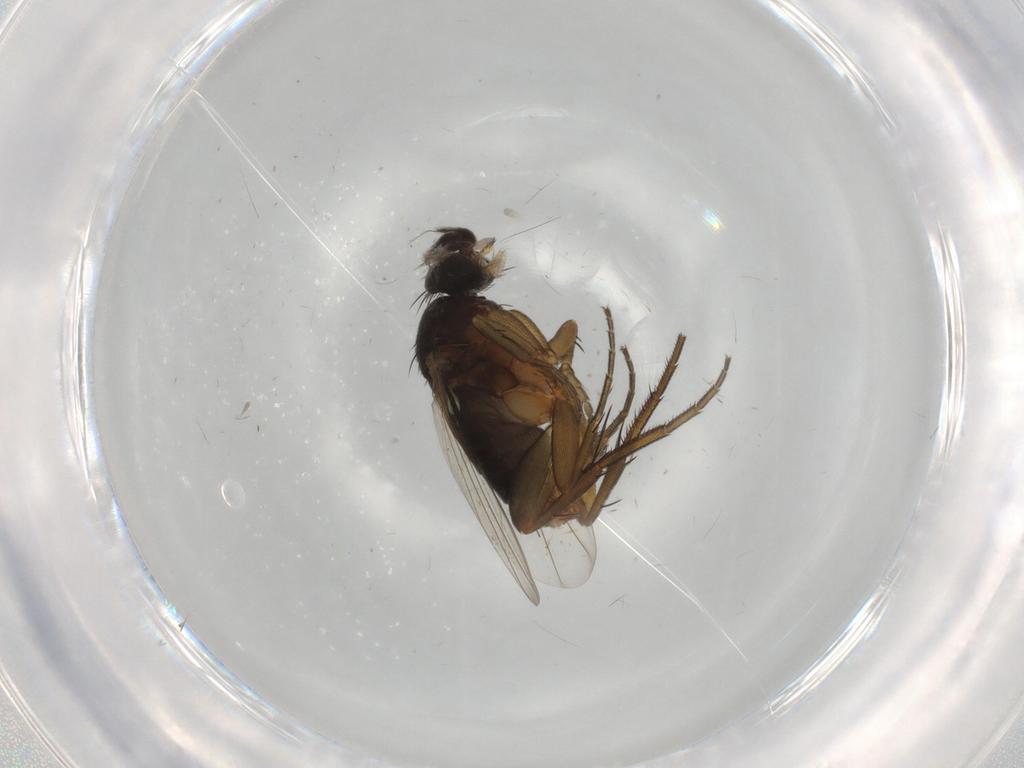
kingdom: Animalia
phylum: Arthropoda
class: Insecta
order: Diptera
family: Phoridae
